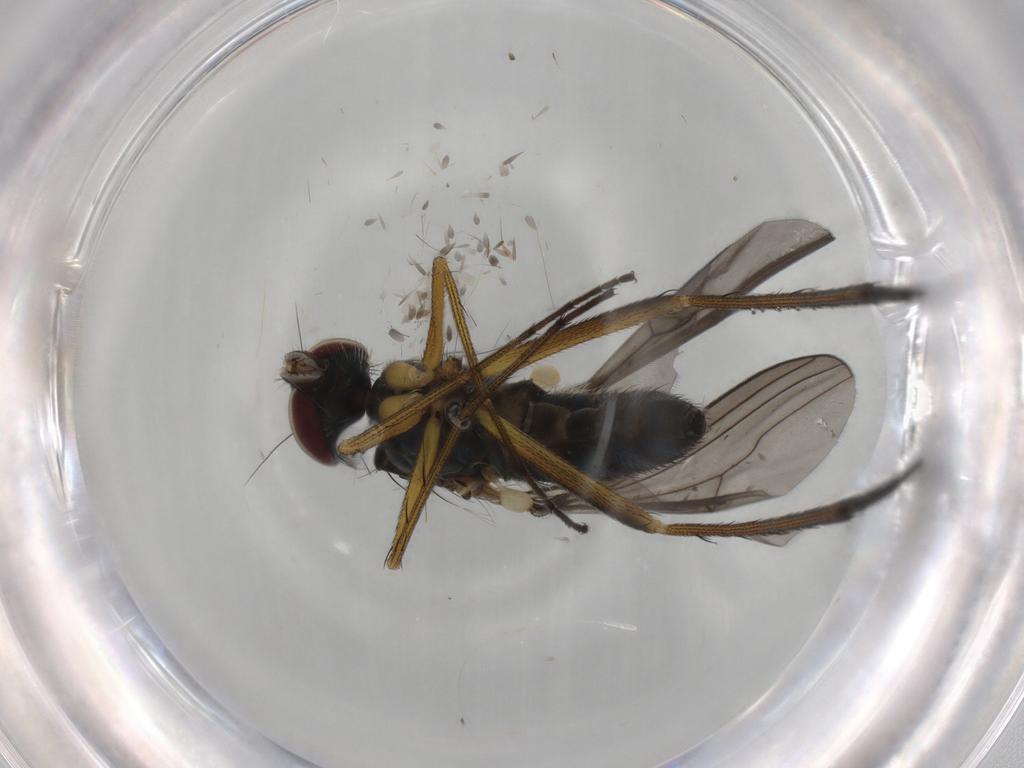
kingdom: Animalia
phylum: Arthropoda
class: Insecta
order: Diptera
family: Dolichopodidae
